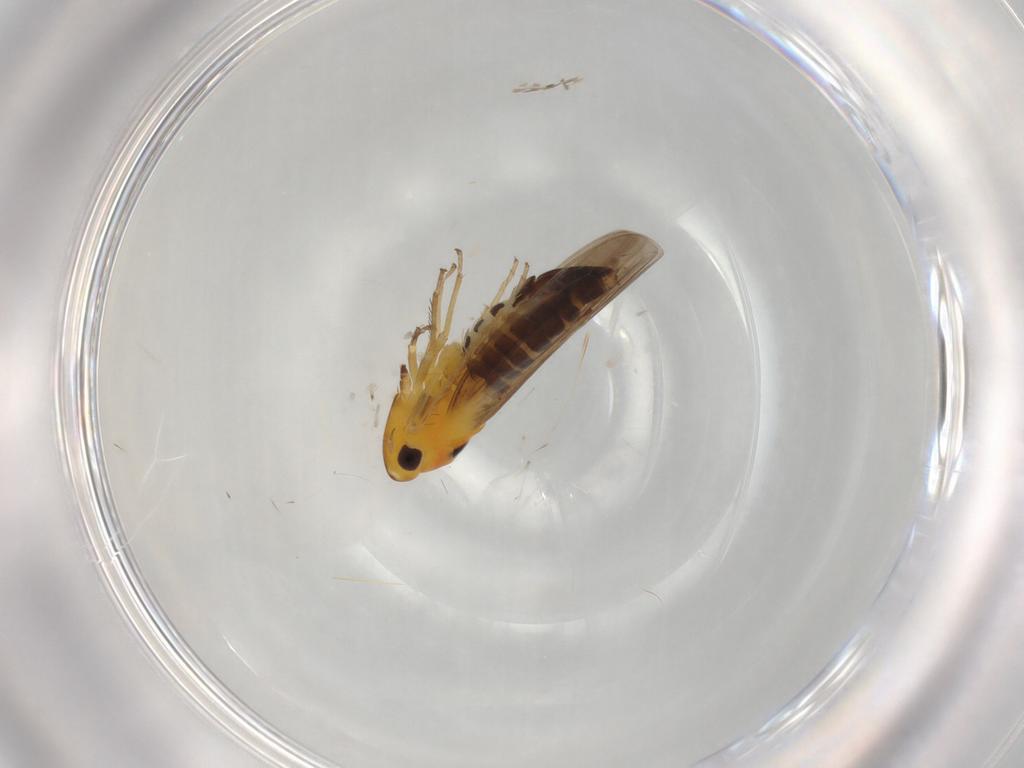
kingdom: Animalia
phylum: Arthropoda
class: Insecta
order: Hemiptera
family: Cicadellidae
